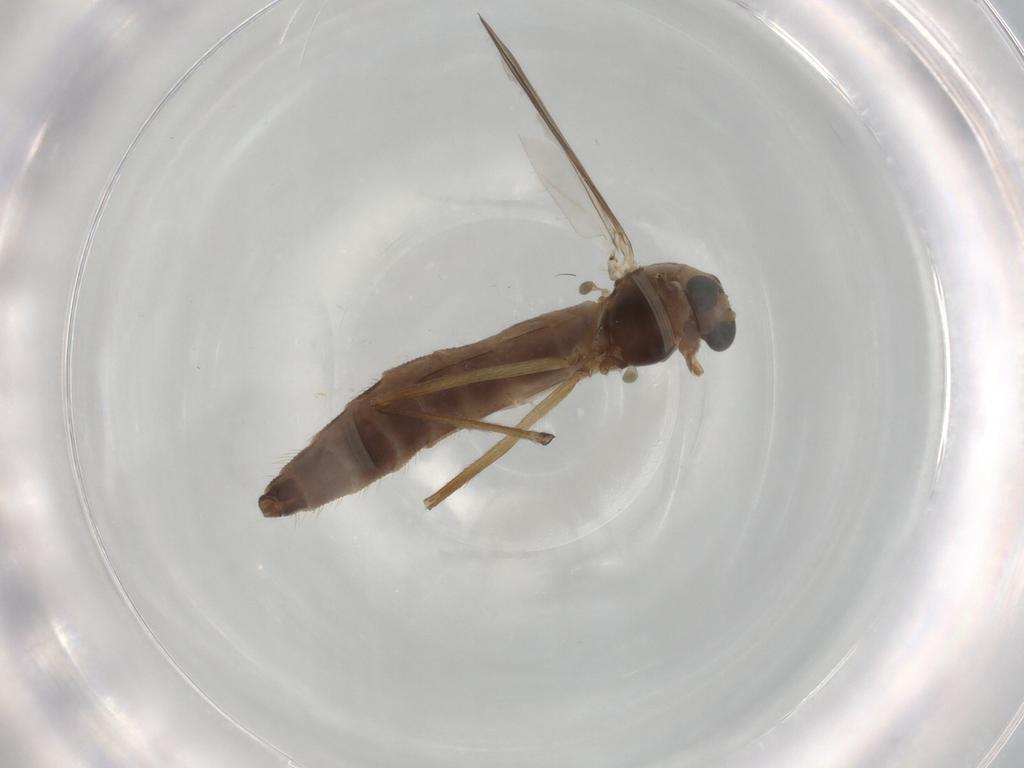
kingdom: Animalia
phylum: Arthropoda
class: Insecta
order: Diptera
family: Chironomidae
